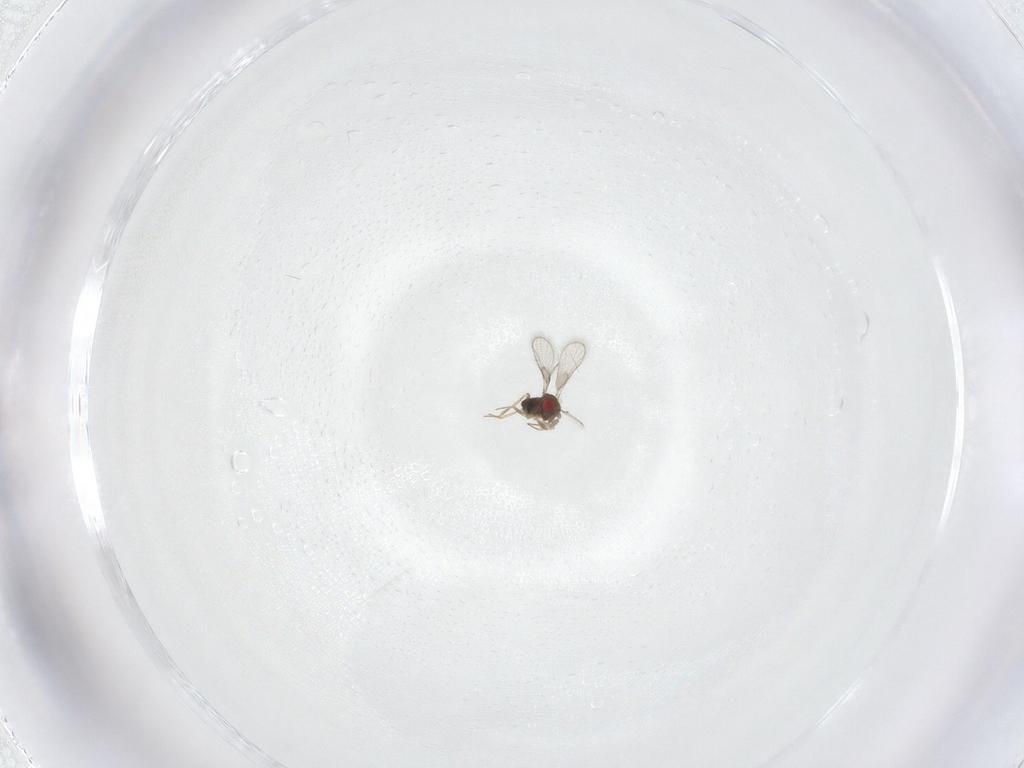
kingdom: Animalia
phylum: Arthropoda
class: Insecta
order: Hymenoptera
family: Trichogrammatidae
